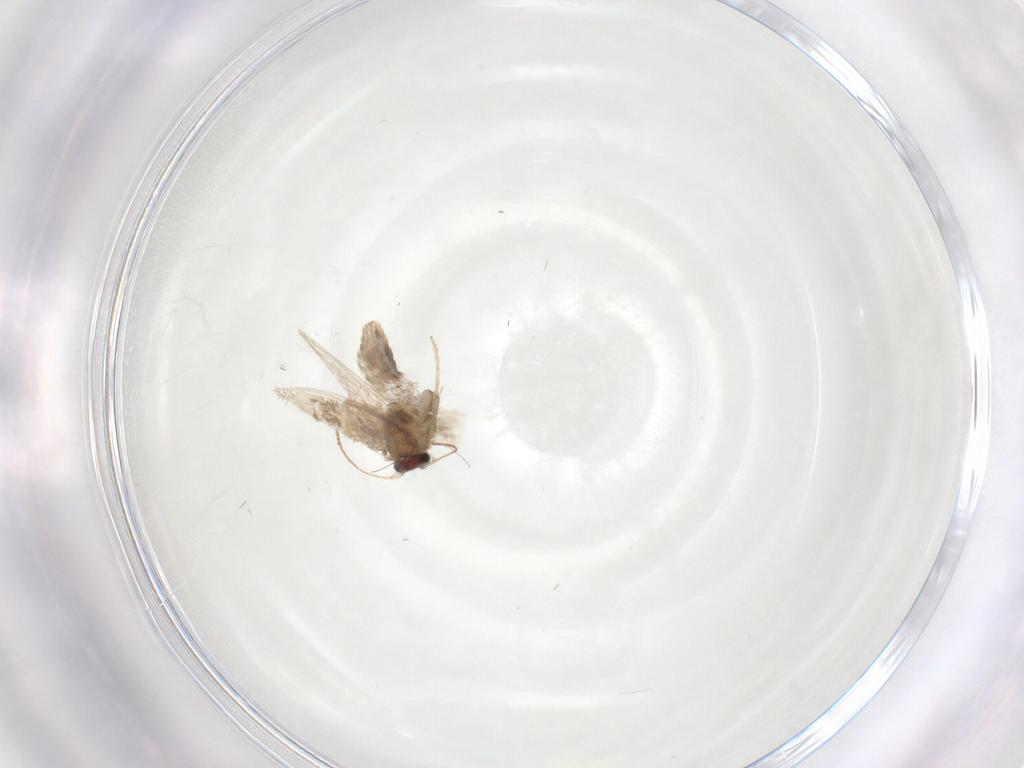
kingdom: Animalia
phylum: Arthropoda
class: Insecta
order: Lepidoptera
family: Nepticulidae
